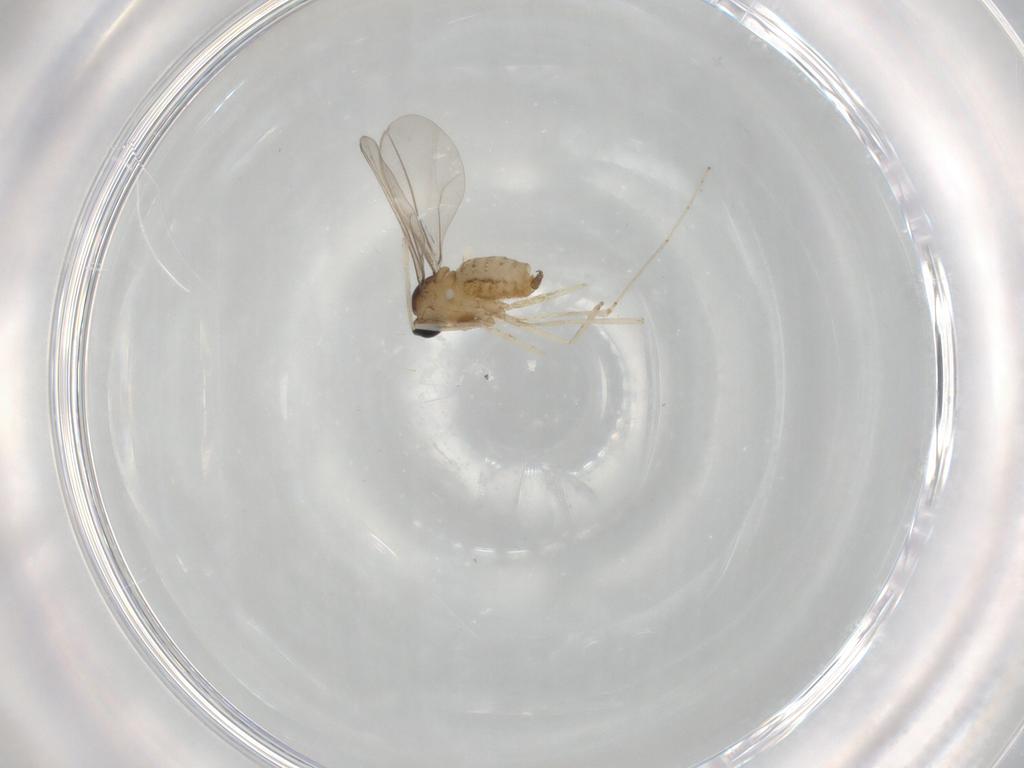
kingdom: Animalia
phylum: Arthropoda
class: Insecta
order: Diptera
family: Cecidomyiidae
